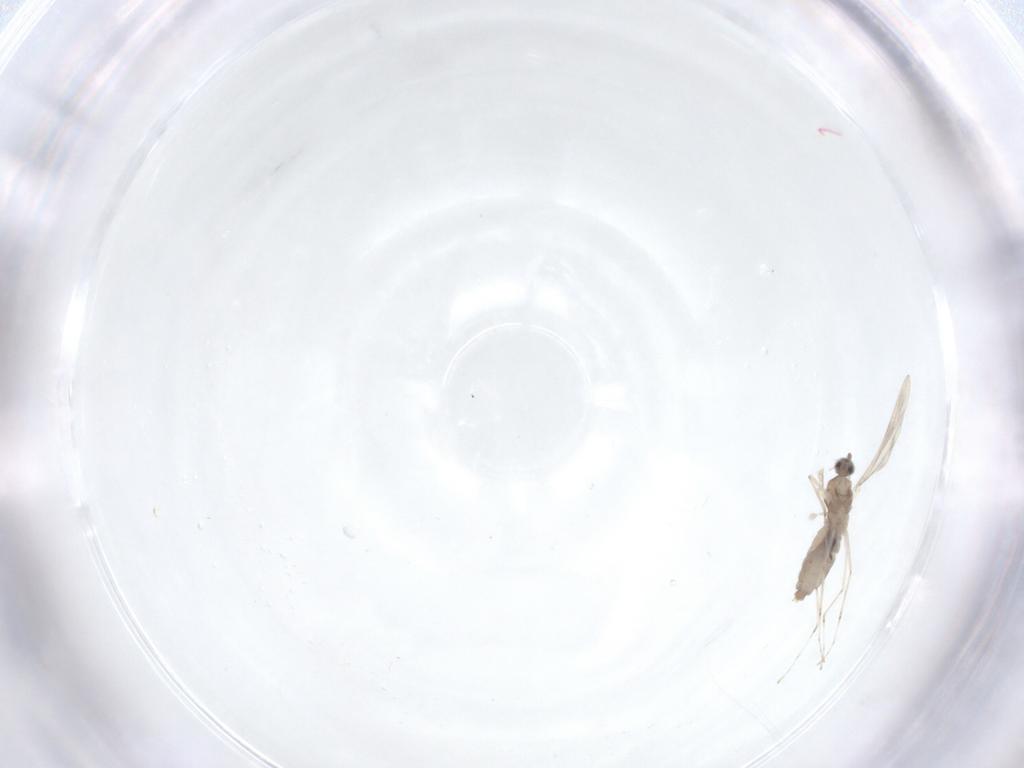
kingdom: Animalia
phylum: Arthropoda
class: Insecta
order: Diptera
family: Cecidomyiidae
